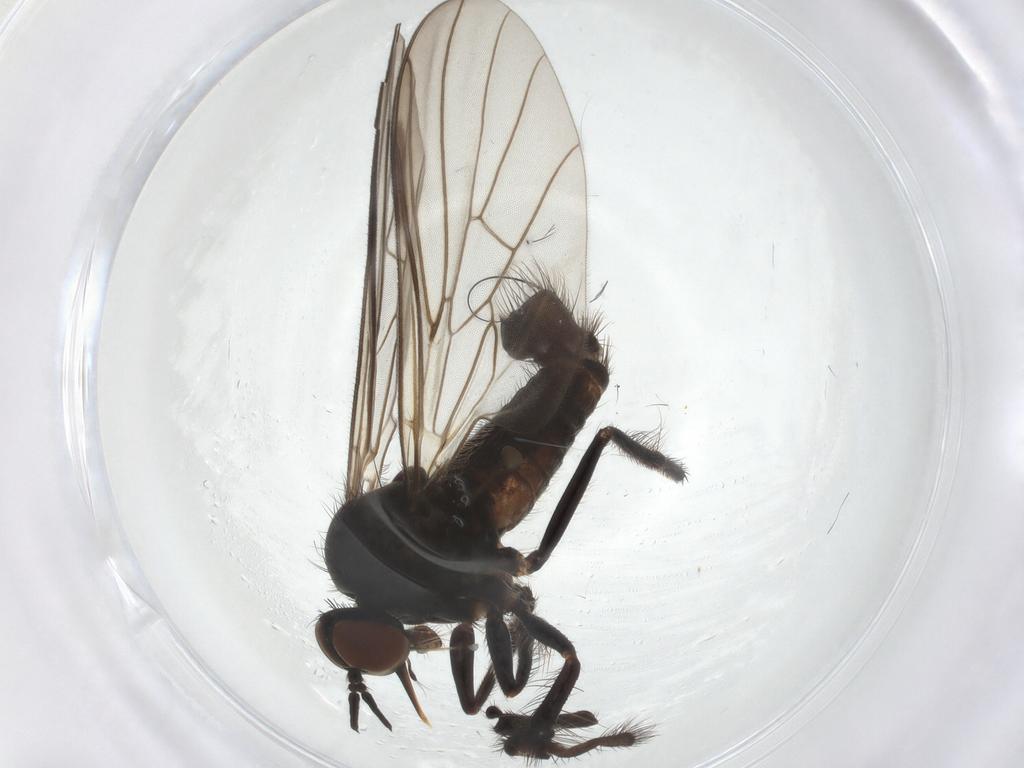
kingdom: Animalia
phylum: Arthropoda
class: Insecta
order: Diptera
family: Empididae
